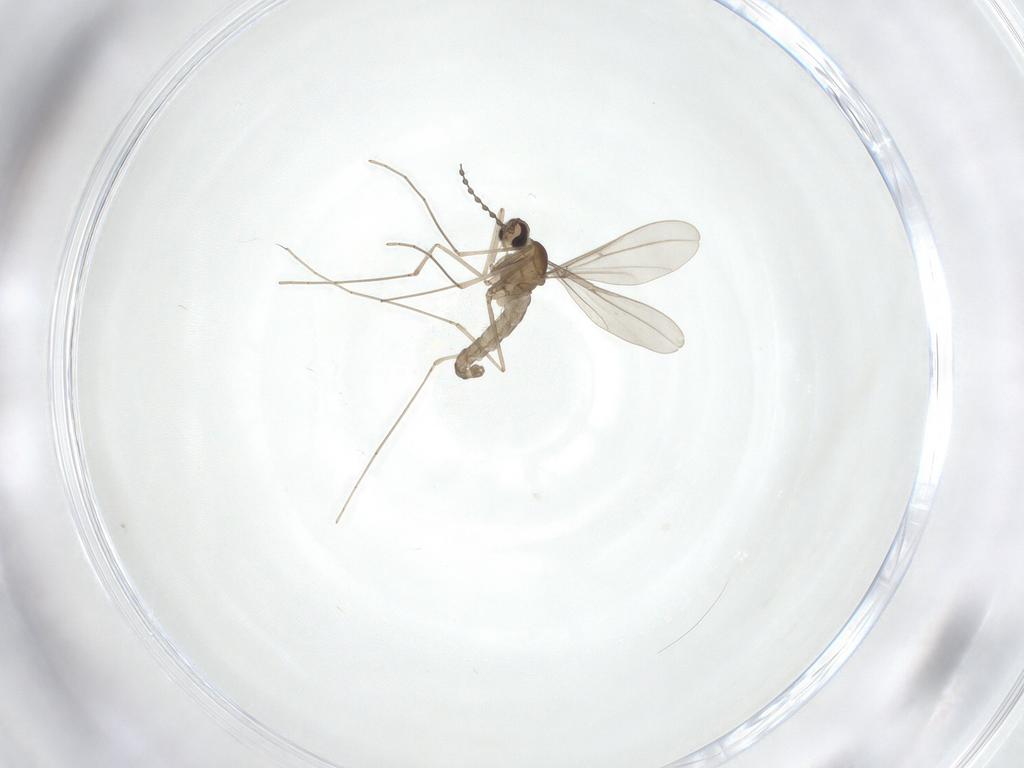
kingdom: Animalia
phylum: Arthropoda
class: Insecta
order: Diptera
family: Cecidomyiidae
